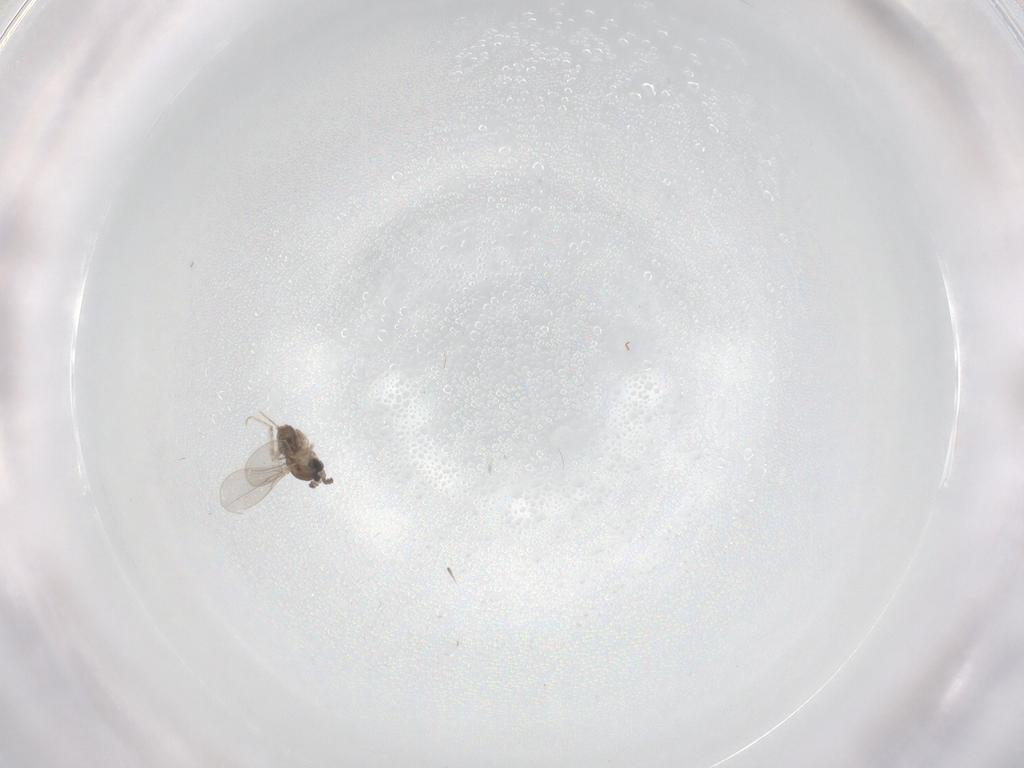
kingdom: Animalia
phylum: Arthropoda
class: Insecta
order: Diptera
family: Cecidomyiidae
